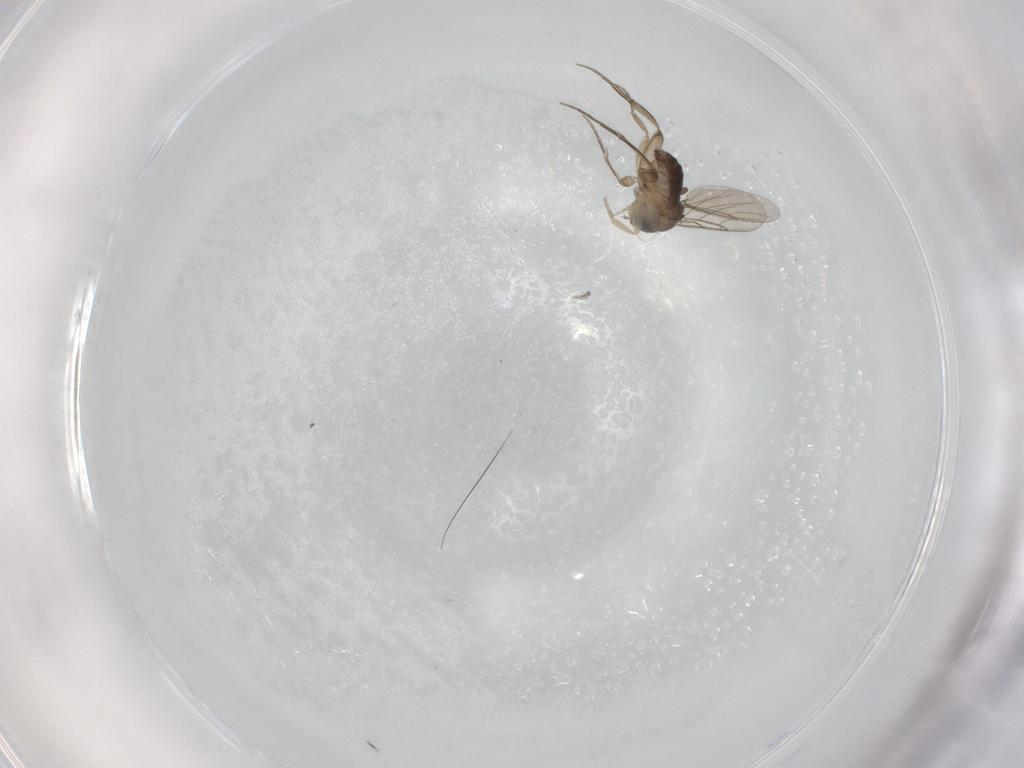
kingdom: Animalia
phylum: Arthropoda
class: Insecta
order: Diptera
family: Phoridae
